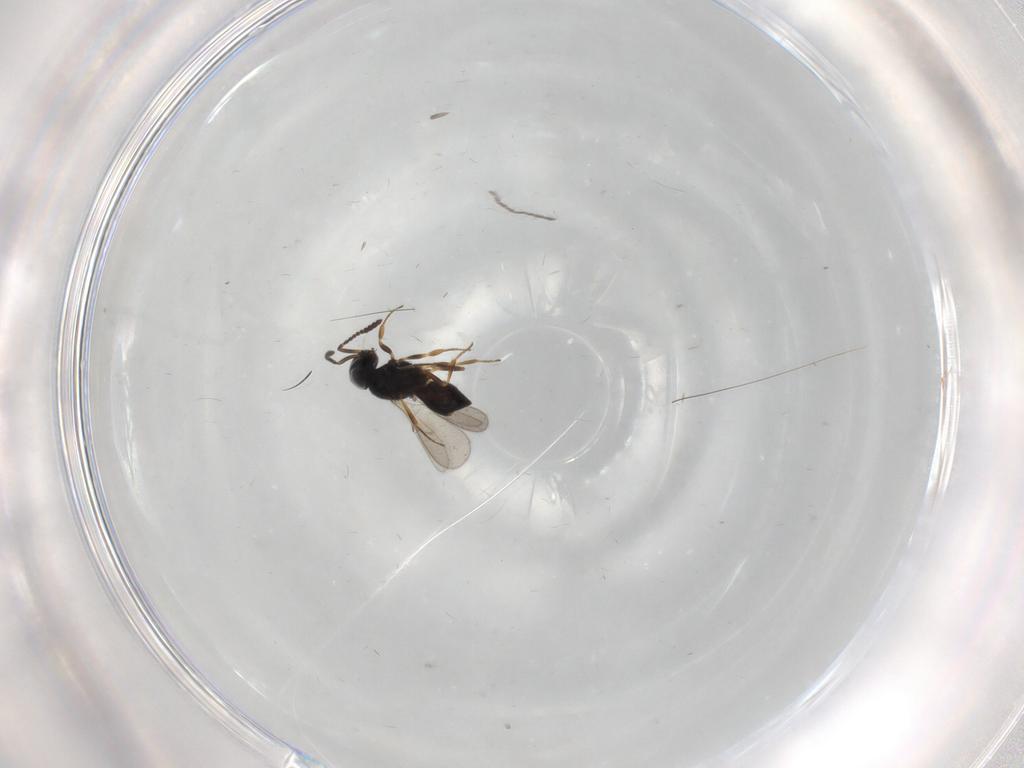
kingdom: Animalia
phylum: Arthropoda
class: Insecta
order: Hymenoptera
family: Scelionidae
